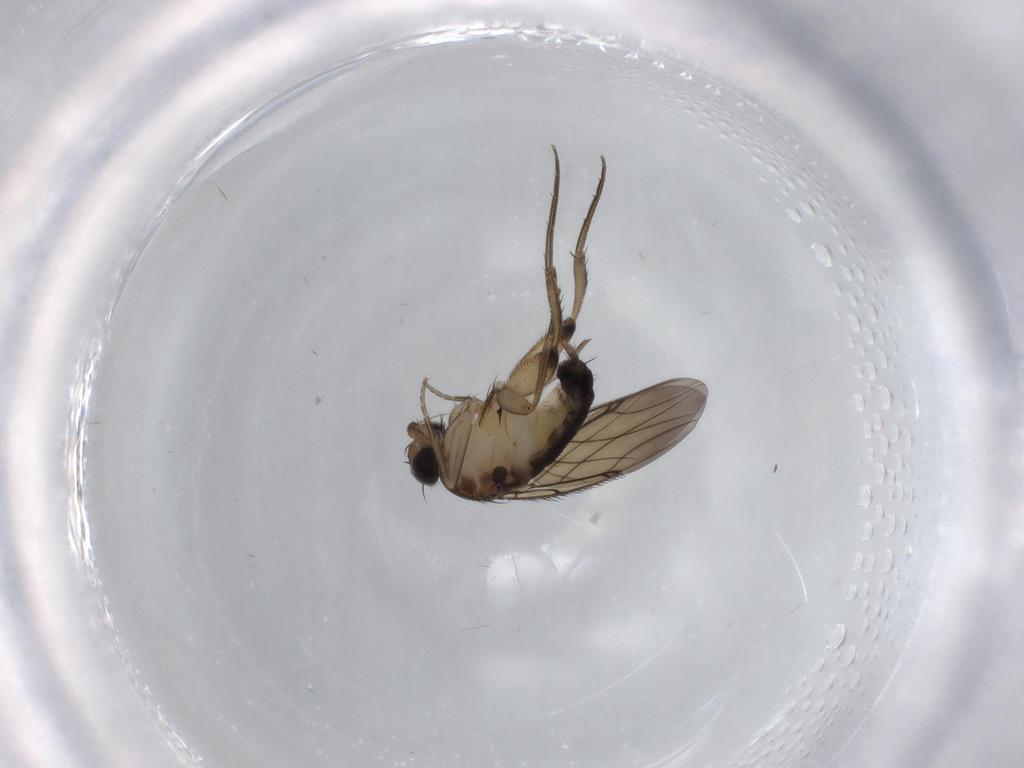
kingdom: Animalia
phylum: Arthropoda
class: Insecta
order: Diptera
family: Phoridae
